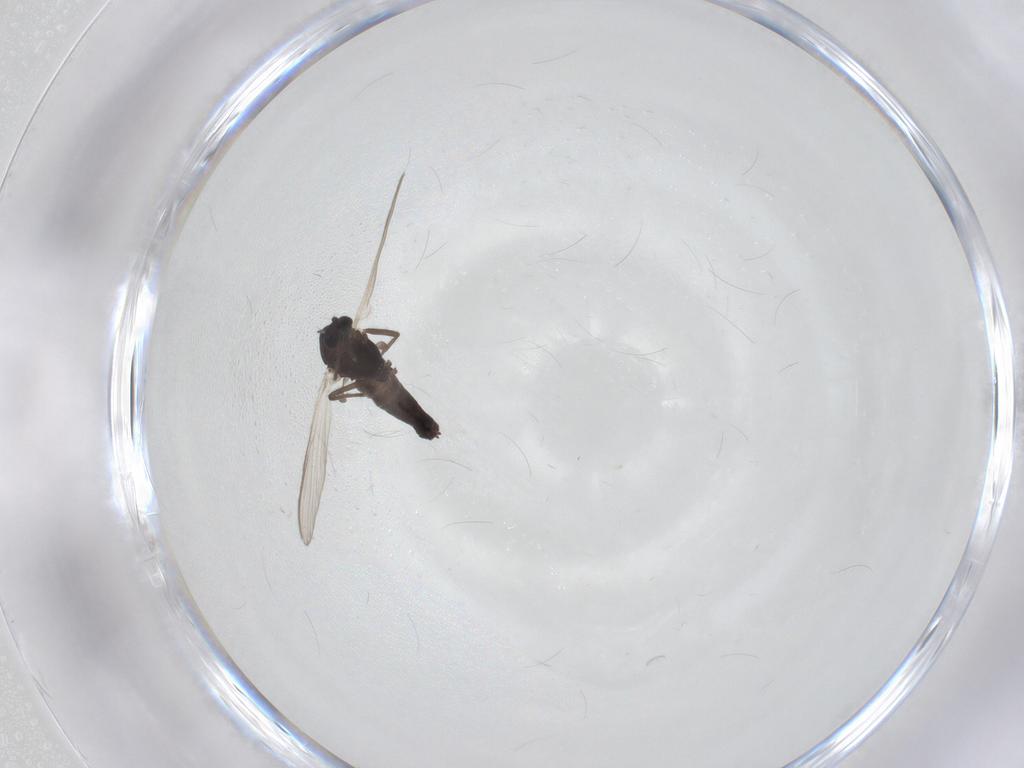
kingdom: Animalia
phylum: Arthropoda
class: Insecta
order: Diptera
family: Chironomidae
